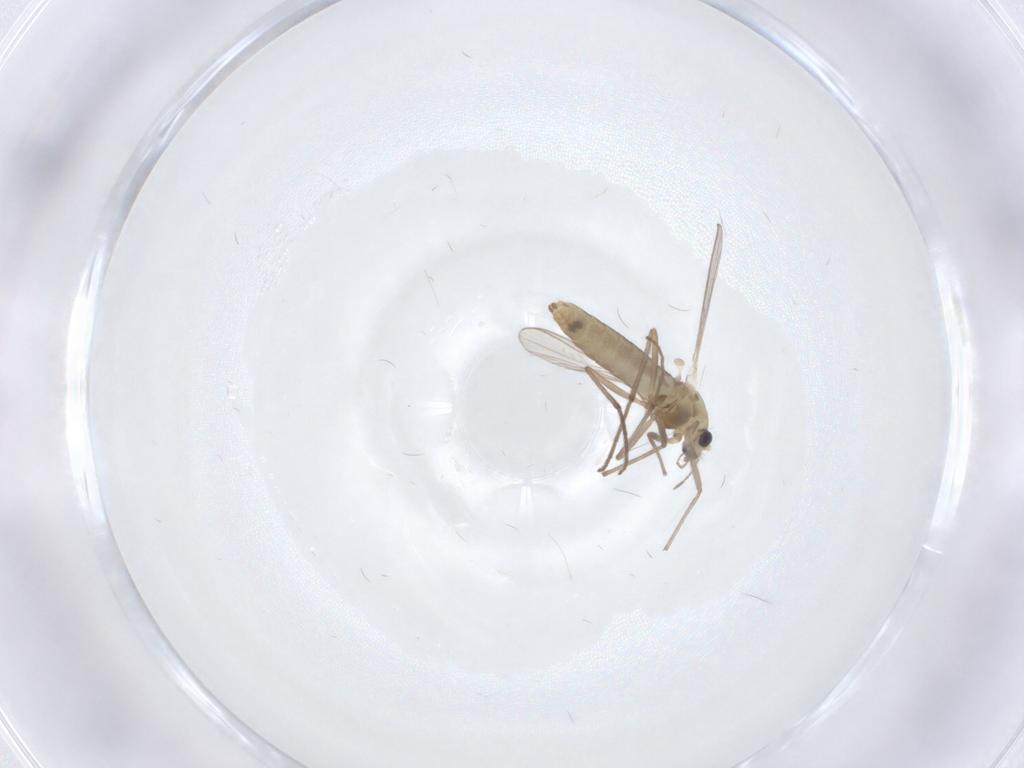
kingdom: Animalia
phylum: Arthropoda
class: Insecta
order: Diptera
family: Chironomidae
